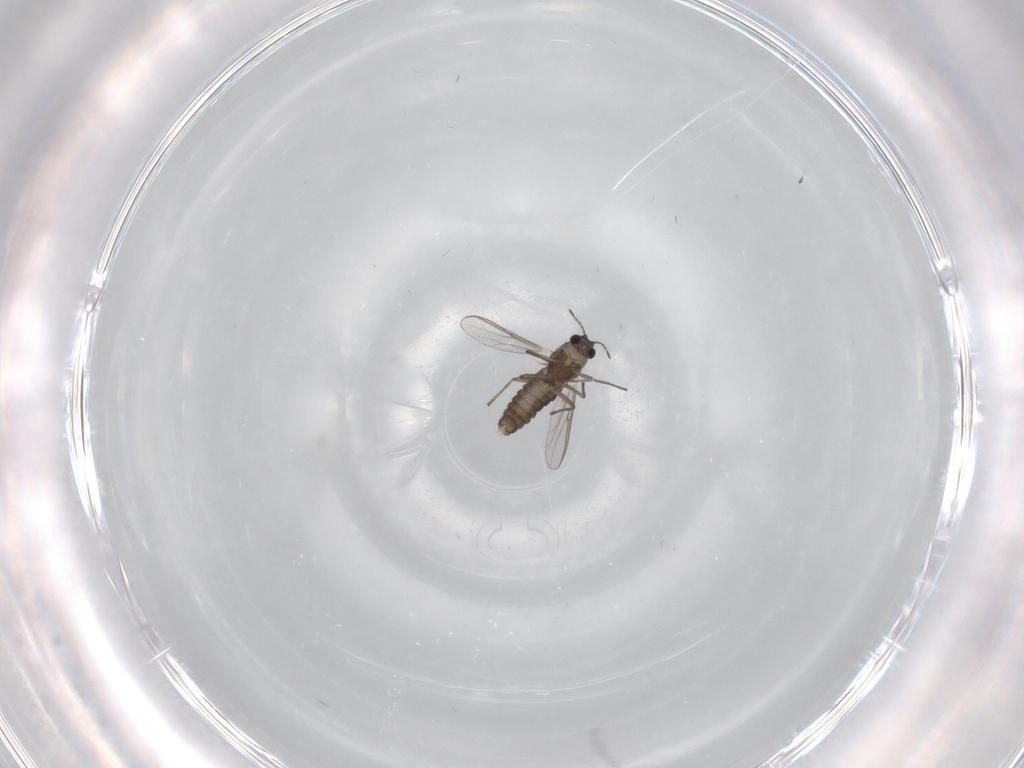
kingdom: Animalia
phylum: Arthropoda
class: Insecta
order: Diptera
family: Chironomidae
